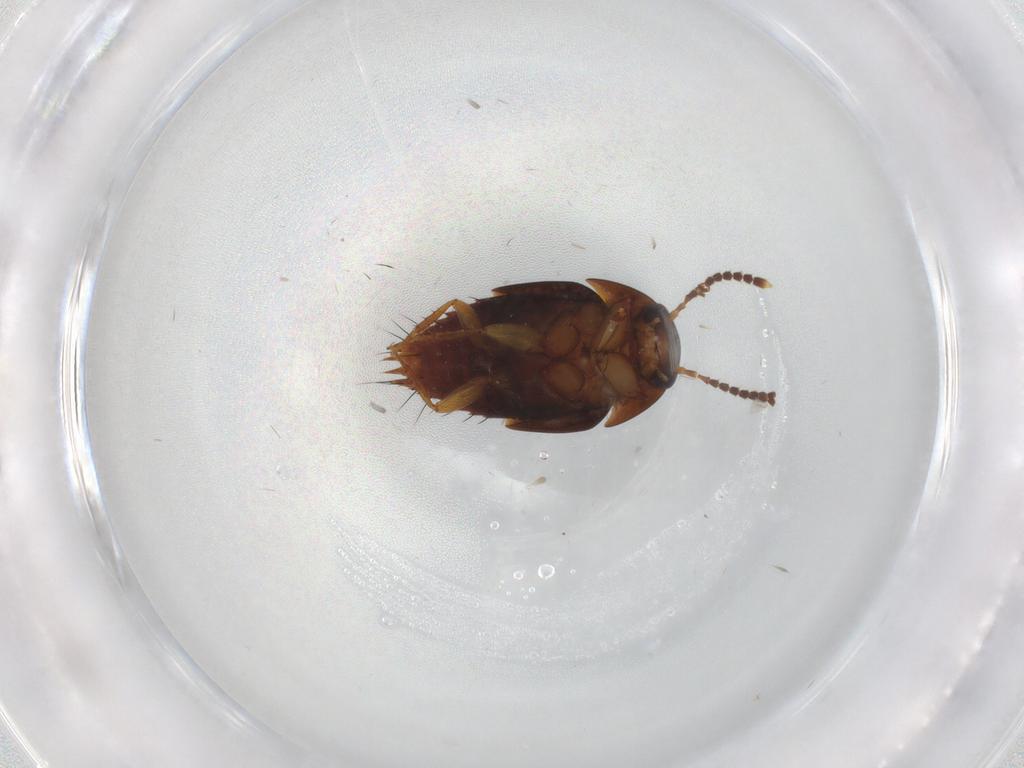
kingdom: Animalia
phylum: Arthropoda
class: Insecta
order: Coleoptera
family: Staphylinidae
